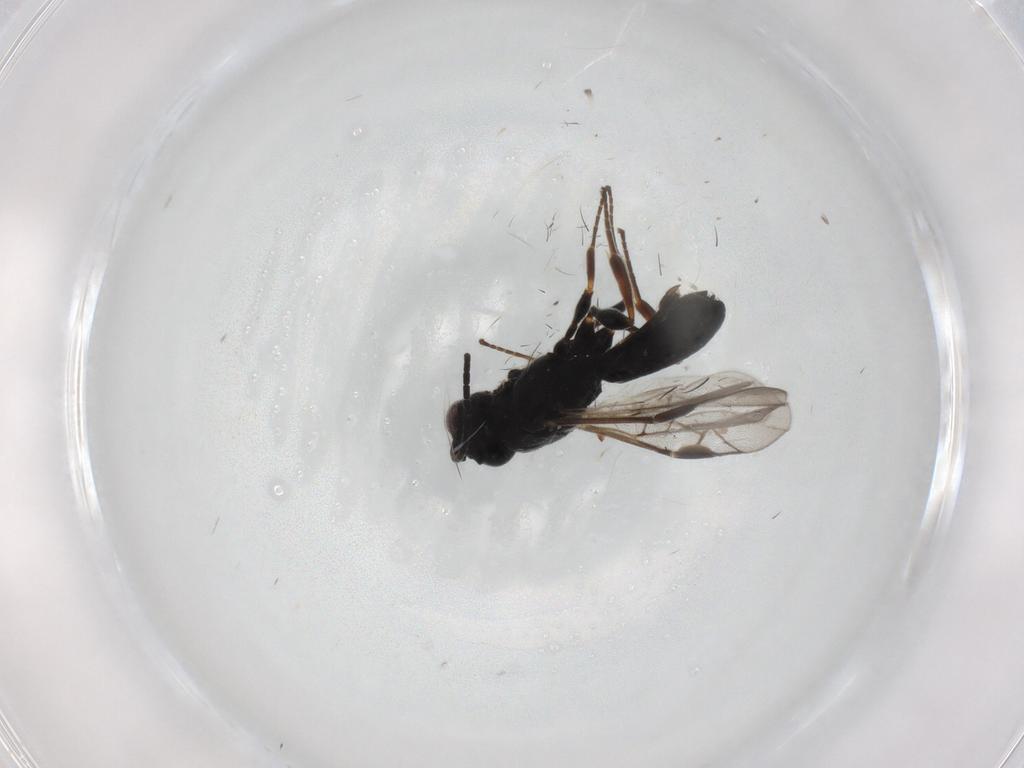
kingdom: Animalia
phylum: Arthropoda
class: Insecta
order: Hymenoptera
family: Braconidae
